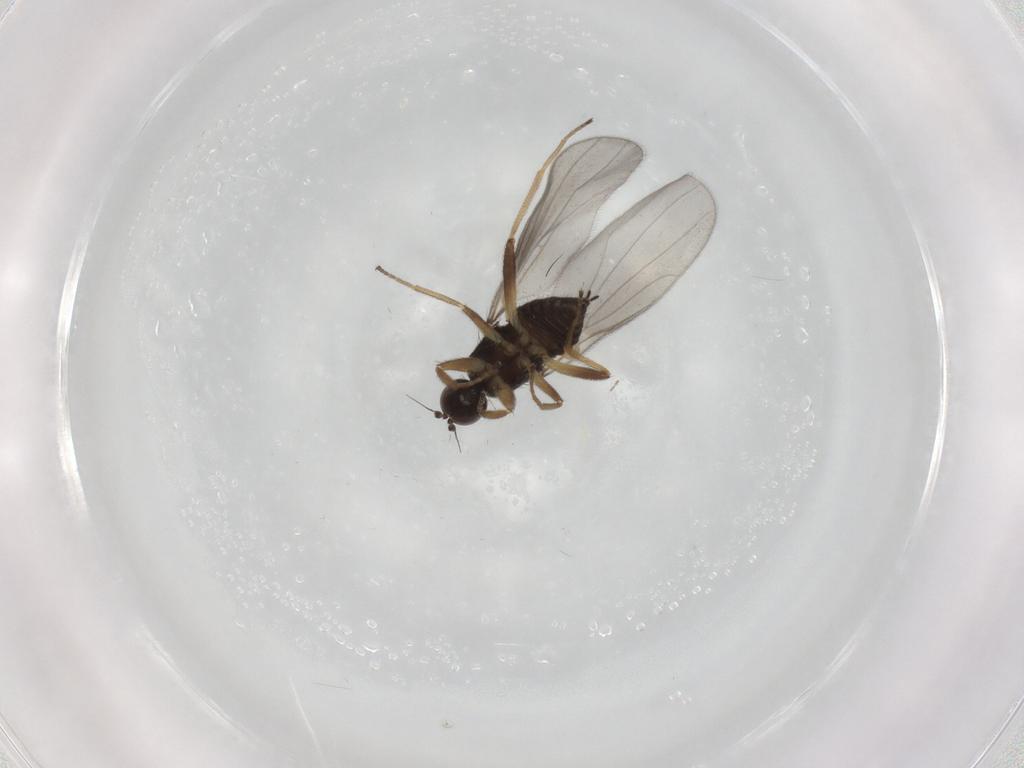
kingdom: Animalia
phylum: Arthropoda
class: Insecta
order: Diptera
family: Hybotidae
